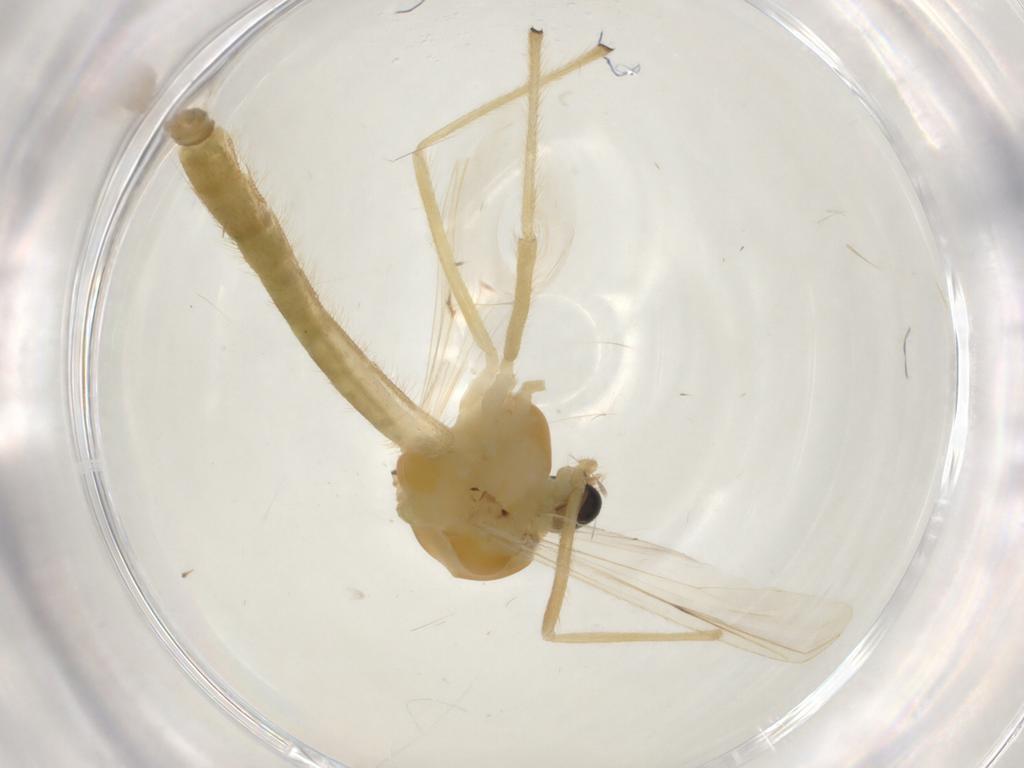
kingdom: Animalia
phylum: Arthropoda
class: Insecta
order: Diptera
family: Chironomidae
